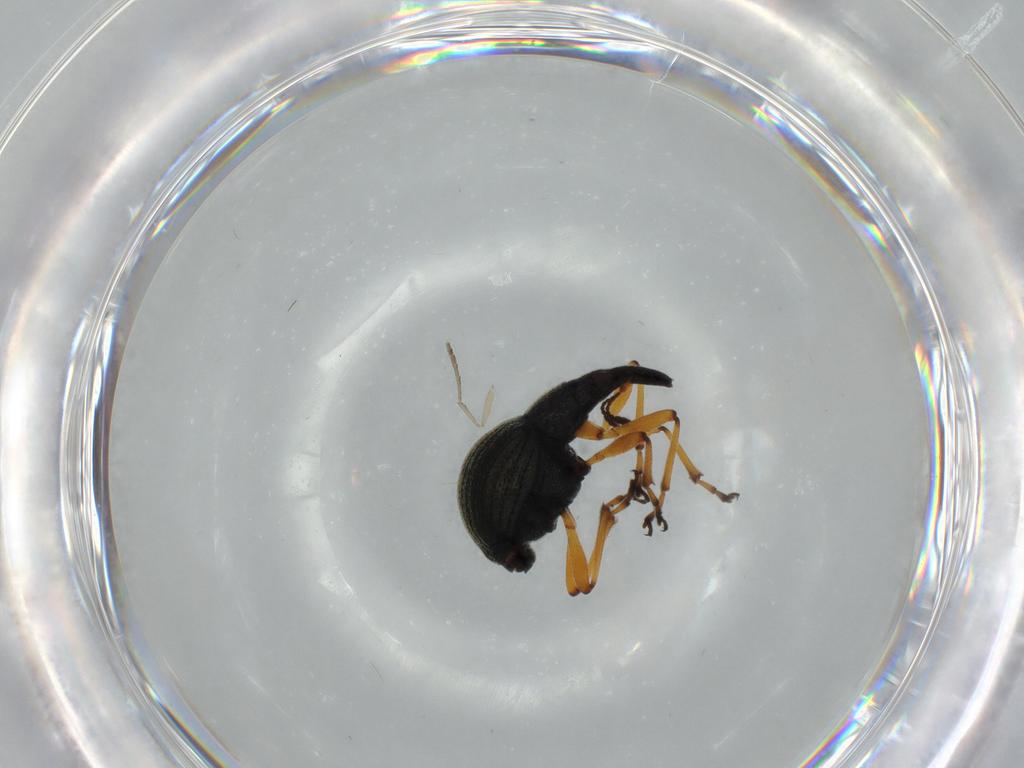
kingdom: Animalia
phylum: Arthropoda
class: Insecta
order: Coleoptera
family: Brentidae
